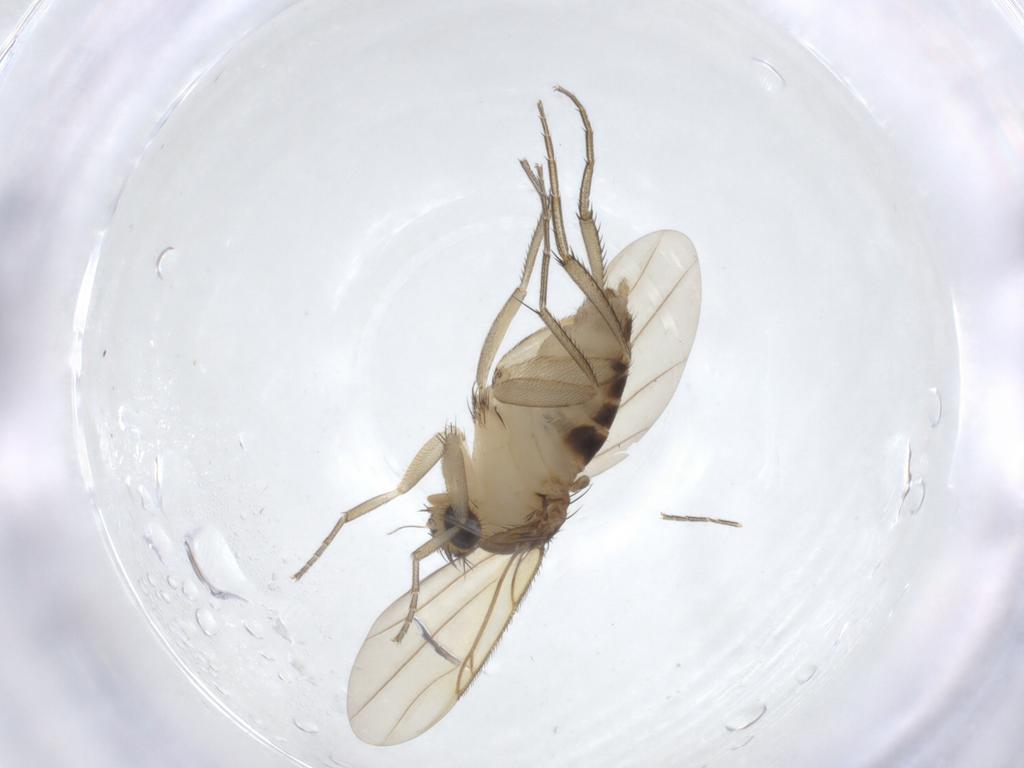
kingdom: Animalia
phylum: Arthropoda
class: Insecta
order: Diptera
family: Phoridae
